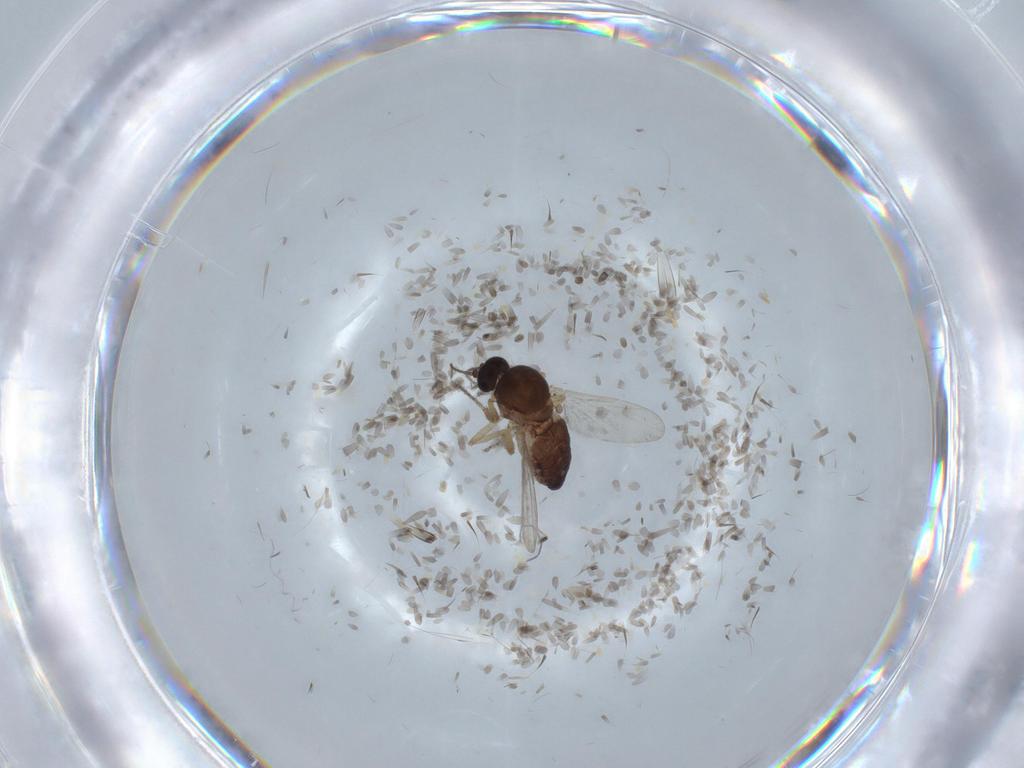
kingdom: Animalia
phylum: Arthropoda
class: Insecta
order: Diptera
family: Ceratopogonidae
